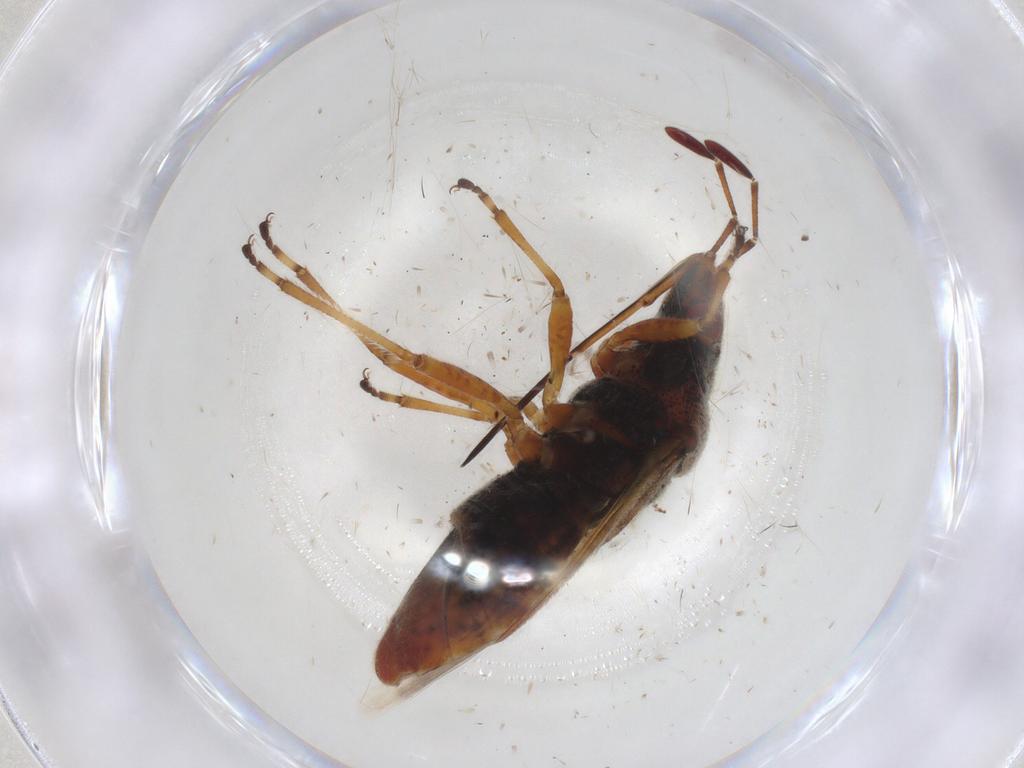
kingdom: Animalia
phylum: Arthropoda
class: Insecta
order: Hemiptera
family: Lygaeidae
